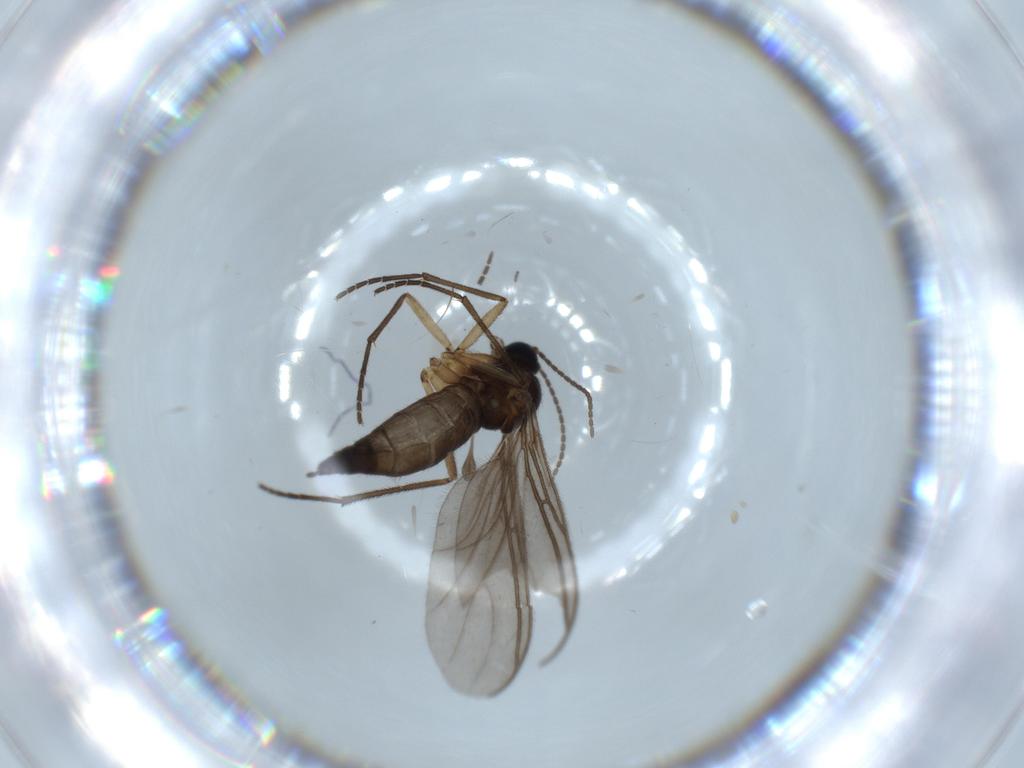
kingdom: Animalia
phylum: Arthropoda
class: Insecta
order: Diptera
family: Sciaridae
